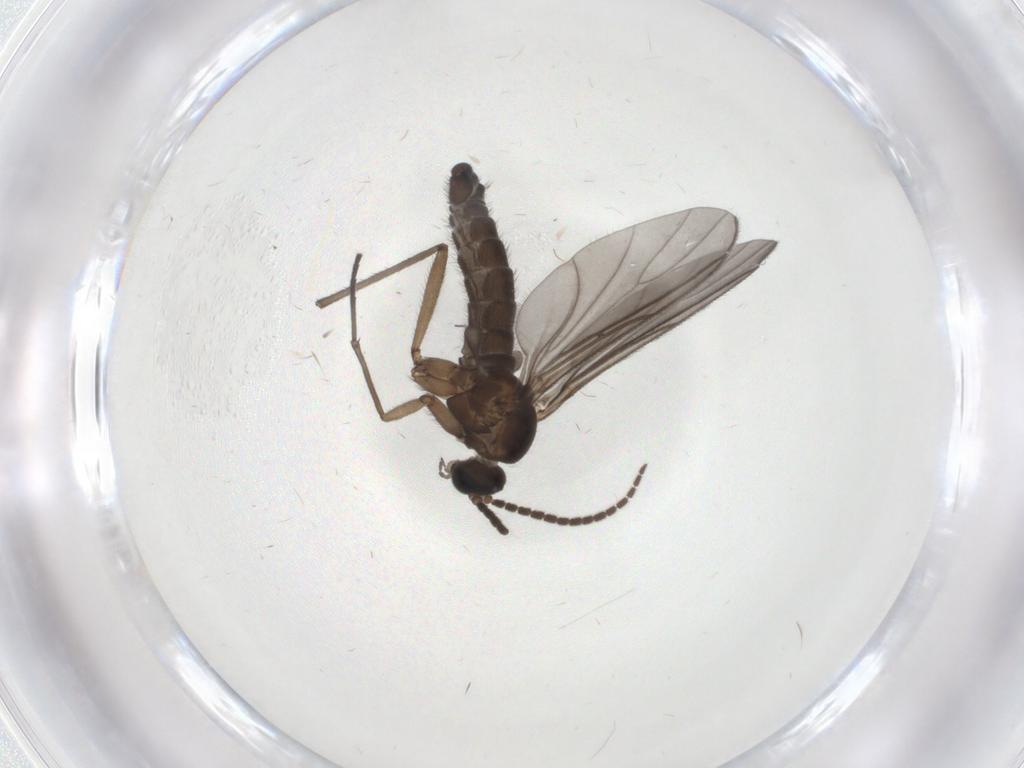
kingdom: Animalia
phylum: Arthropoda
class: Insecta
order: Diptera
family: Sciaridae
